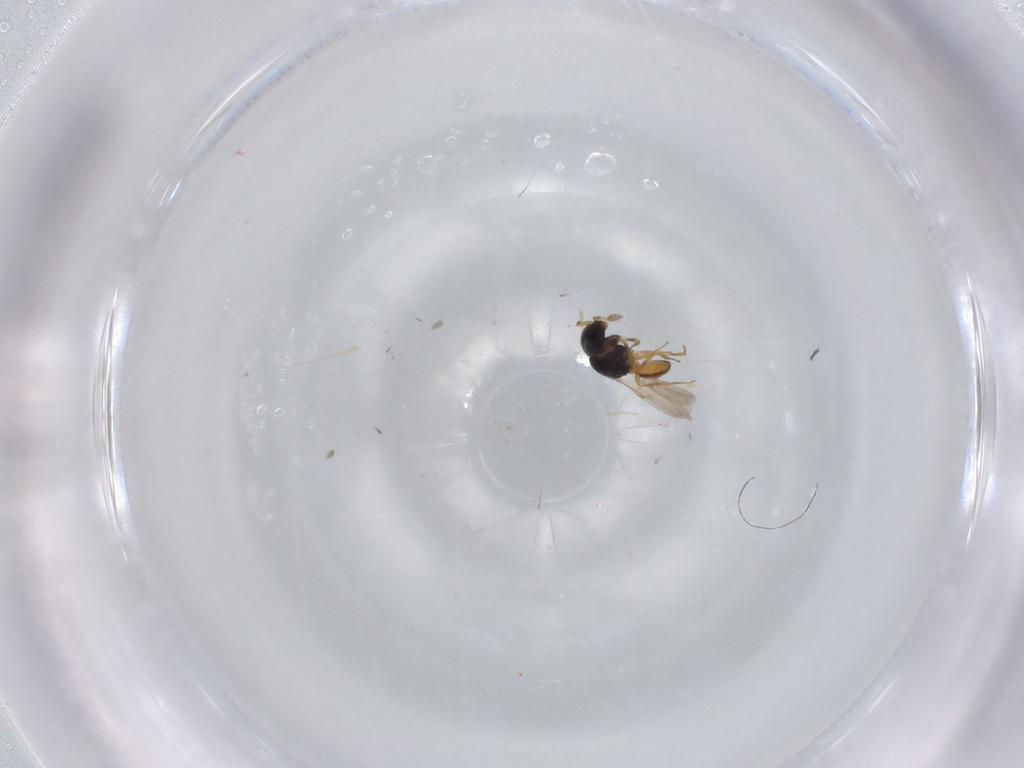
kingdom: Animalia
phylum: Arthropoda
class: Insecta
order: Hymenoptera
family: Scelionidae
